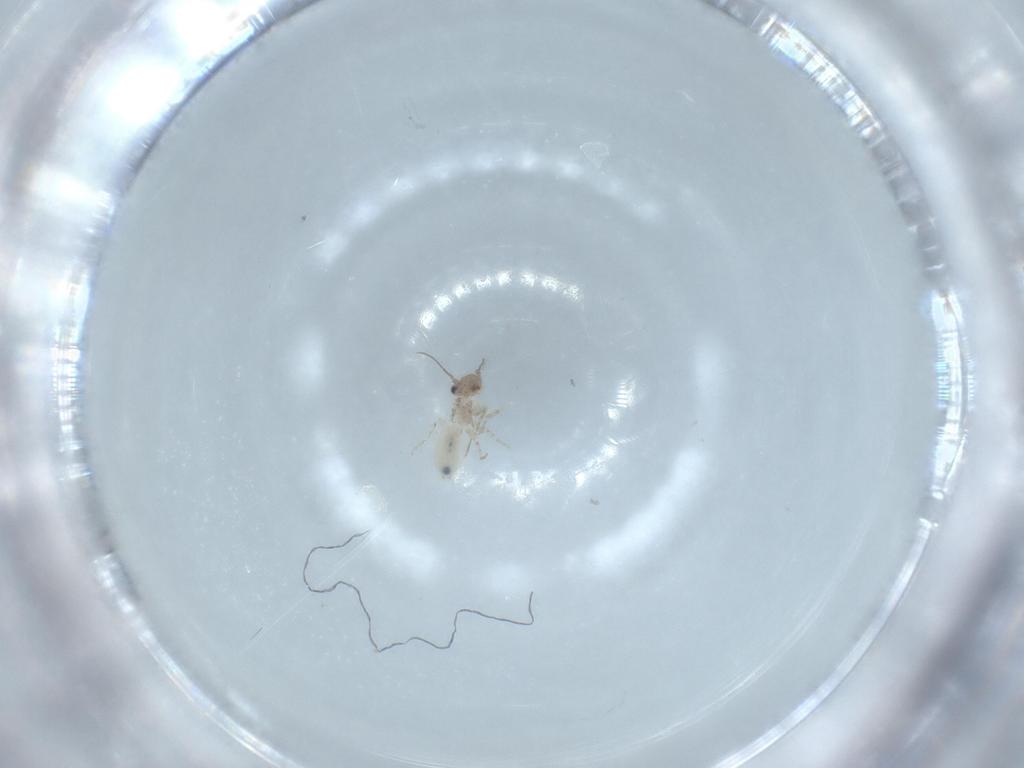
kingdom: Animalia
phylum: Arthropoda
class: Insecta
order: Psocodea
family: Lepidopsocidae
